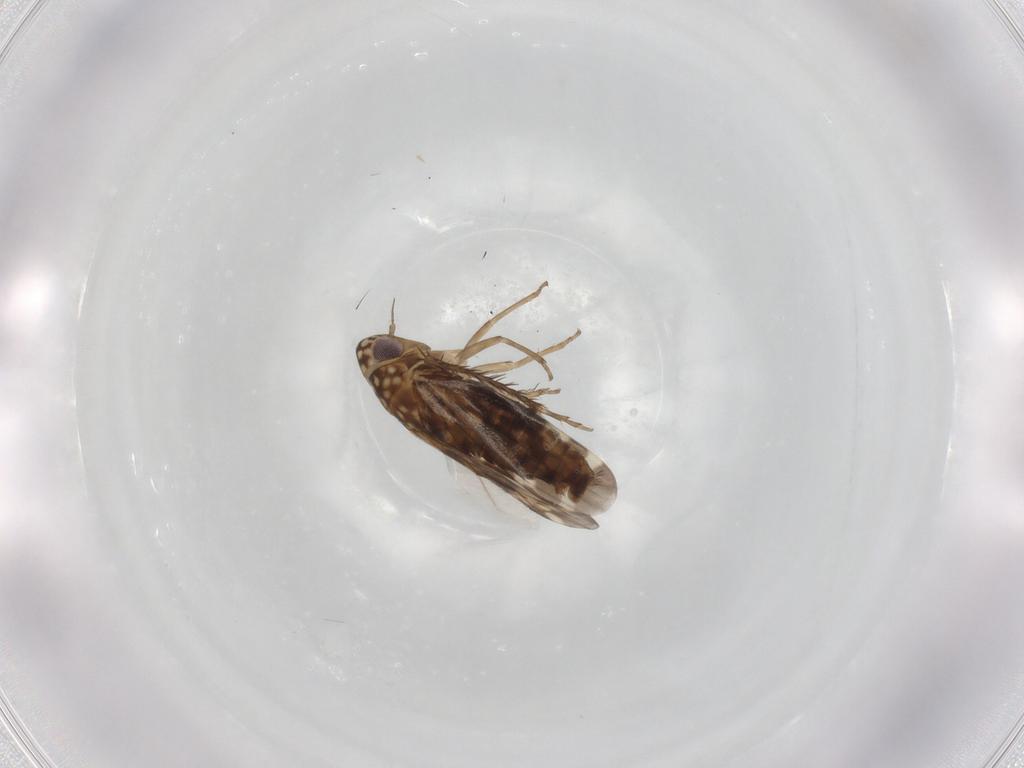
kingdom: Animalia
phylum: Arthropoda
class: Insecta
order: Hemiptera
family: Cicadellidae
